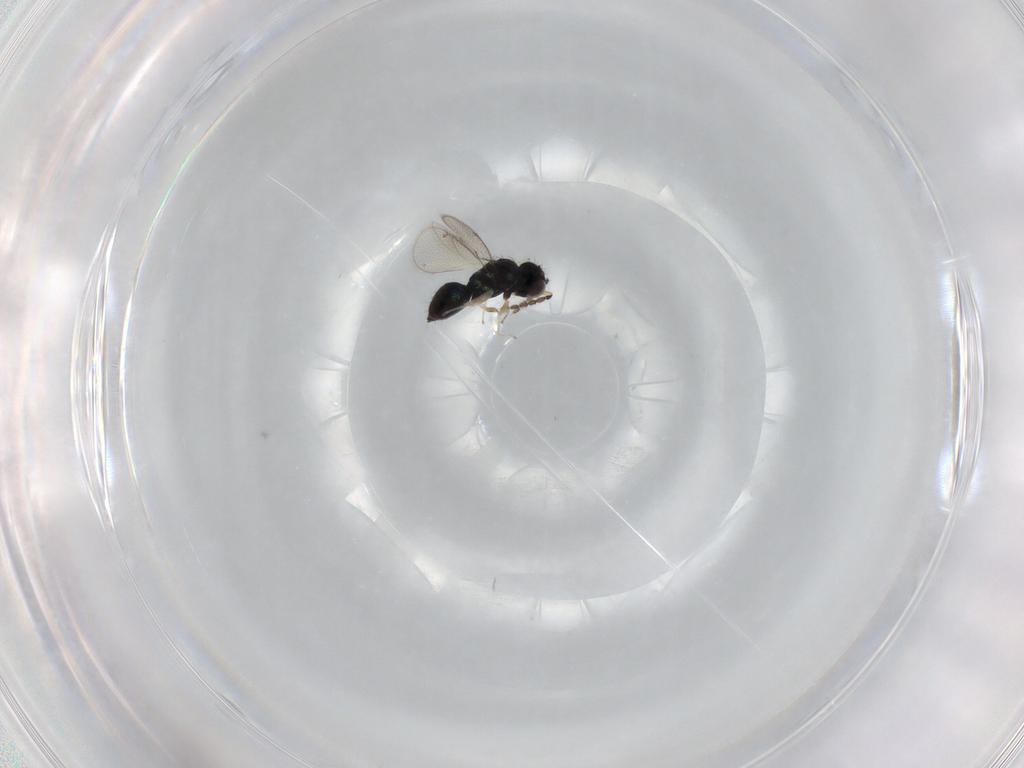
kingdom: Animalia
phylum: Arthropoda
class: Insecta
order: Hymenoptera
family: Eulophidae
